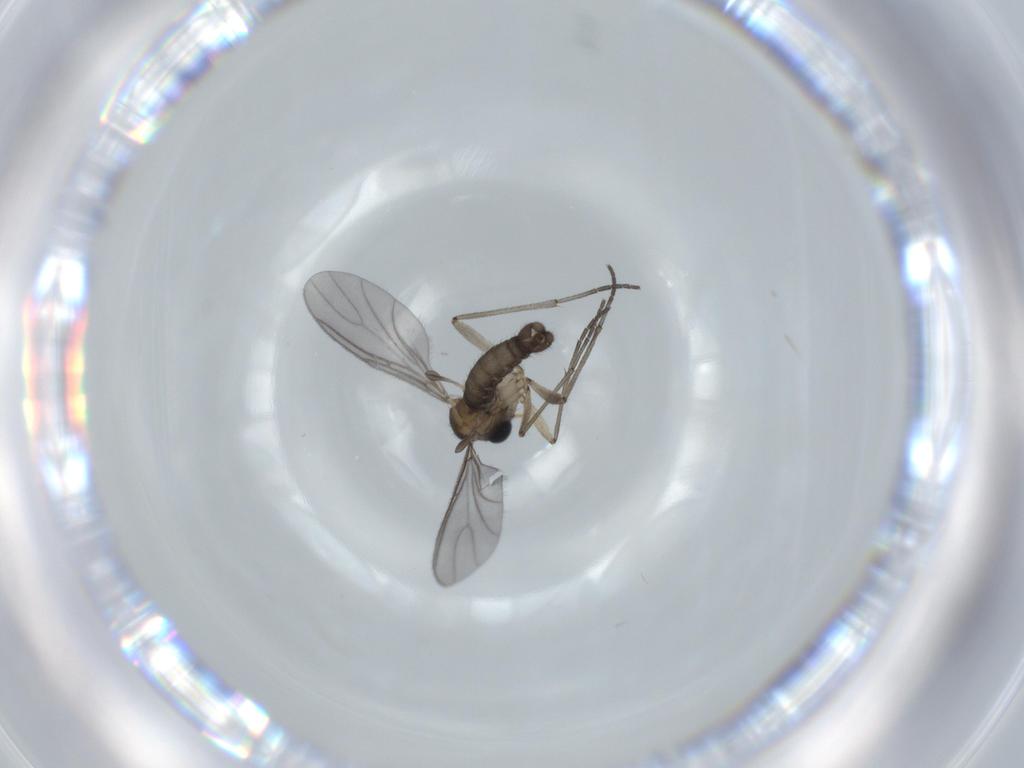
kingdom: Animalia
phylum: Arthropoda
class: Insecta
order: Diptera
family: Sciaridae
